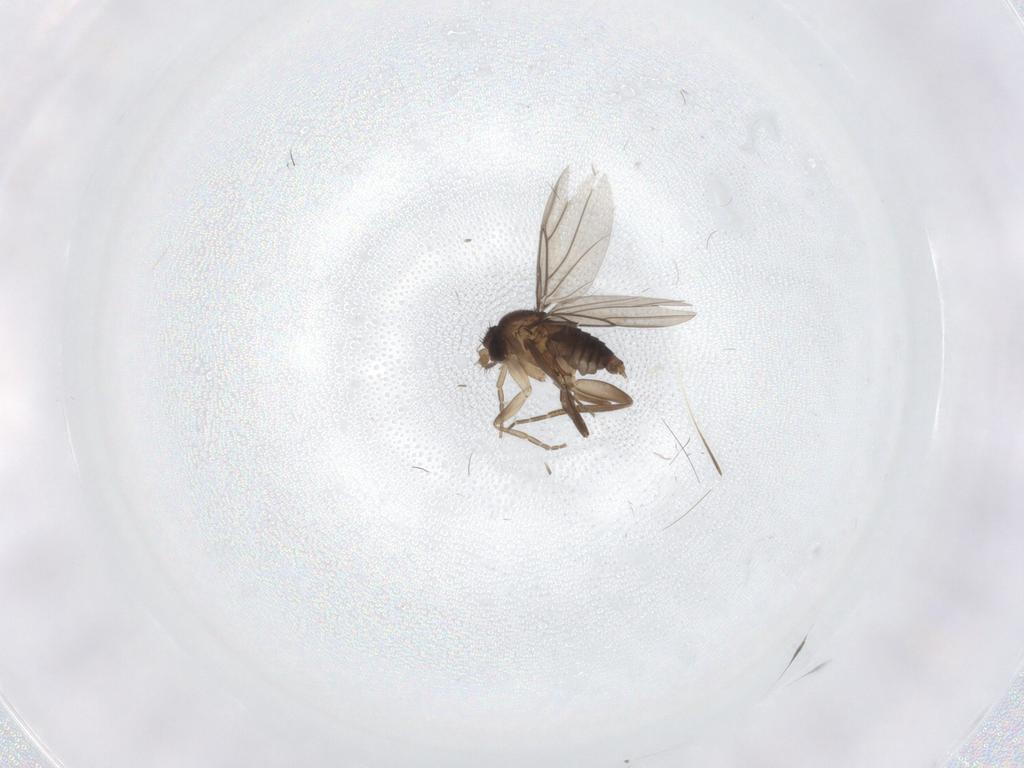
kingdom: Animalia
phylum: Arthropoda
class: Insecta
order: Diptera
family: Phoridae
